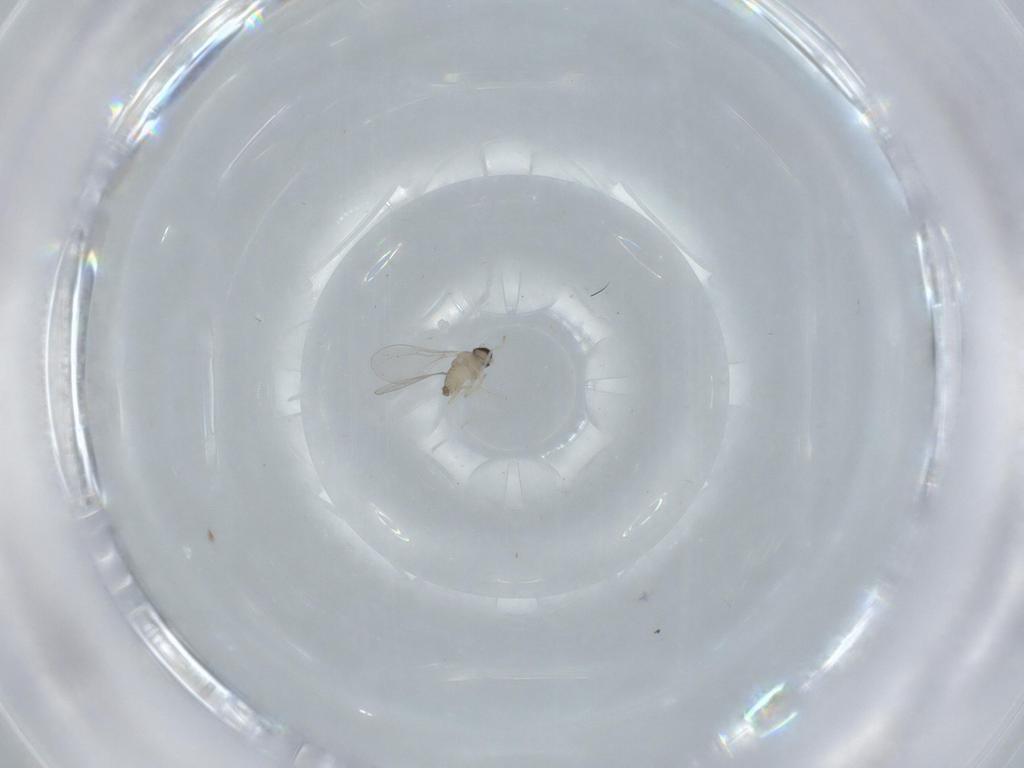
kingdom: Animalia
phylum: Arthropoda
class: Insecta
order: Diptera
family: Cecidomyiidae
